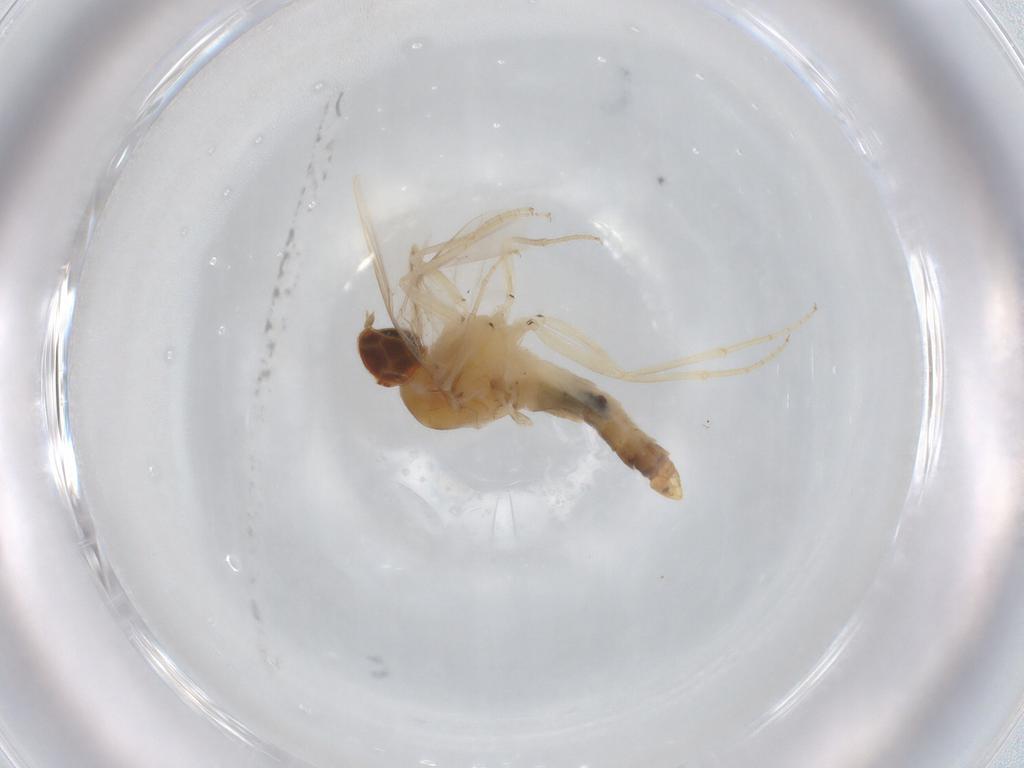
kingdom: Animalia
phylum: Arthropoda
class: Insecta
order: Diptera
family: Scenopinidae
